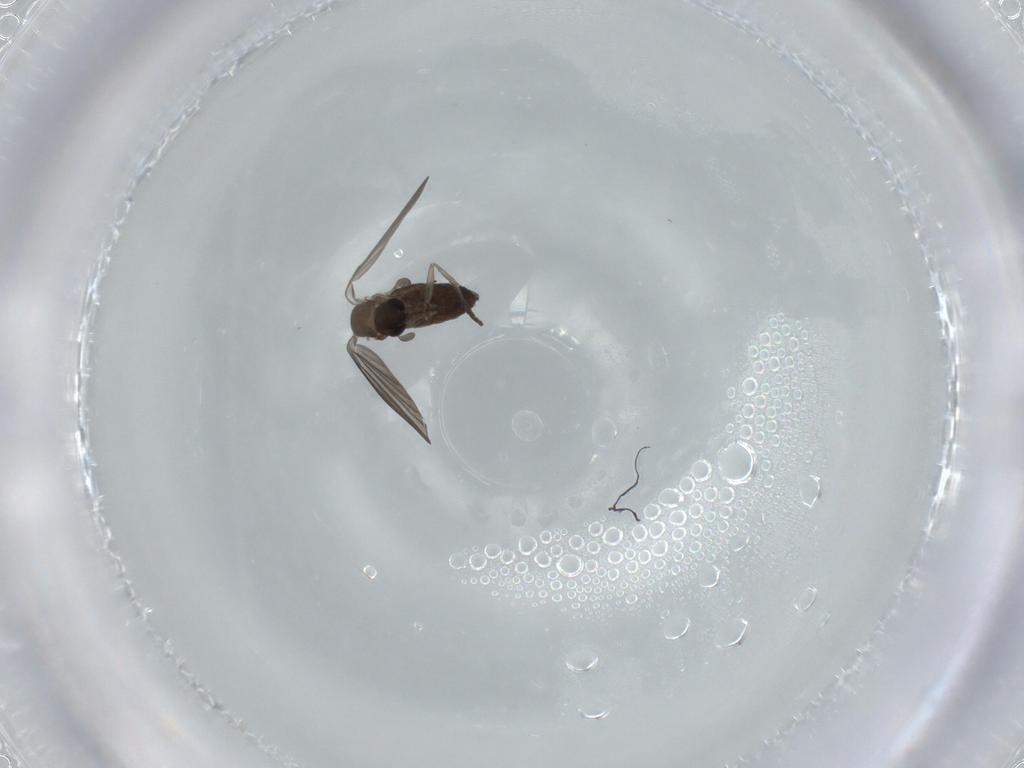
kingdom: Animalia
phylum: Arthropoda
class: Insecta
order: Diptera
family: Cecidomyiidae
